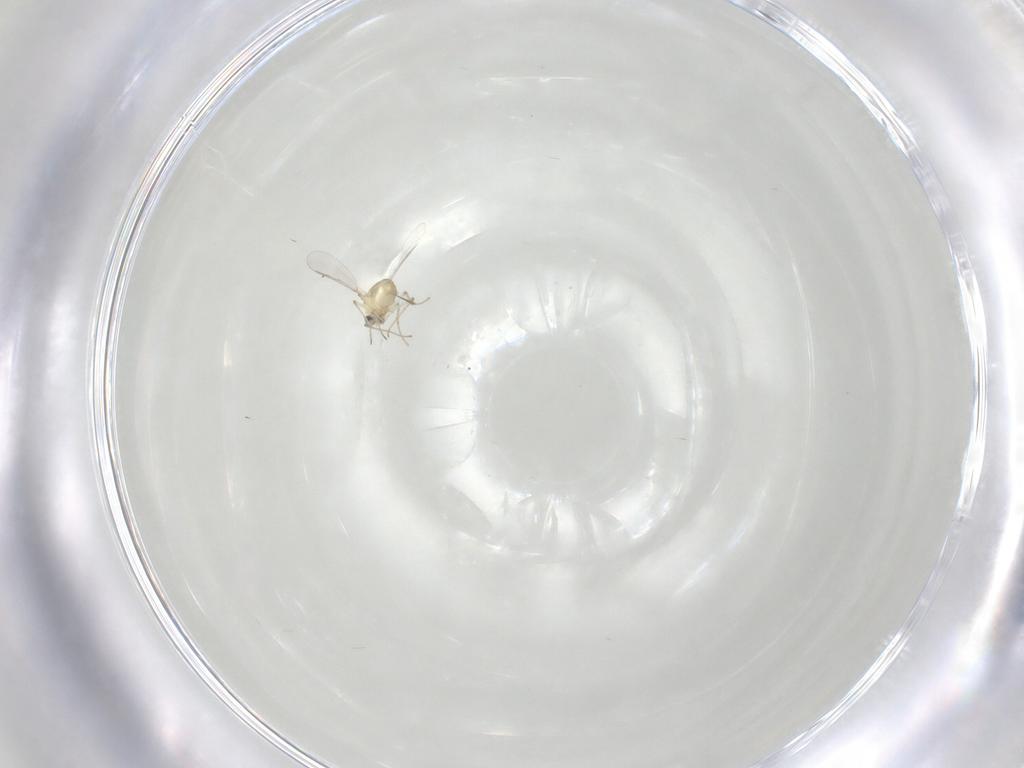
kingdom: Animalia
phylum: Arthropoda
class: Insecta
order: Diptera
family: Chironomidae
